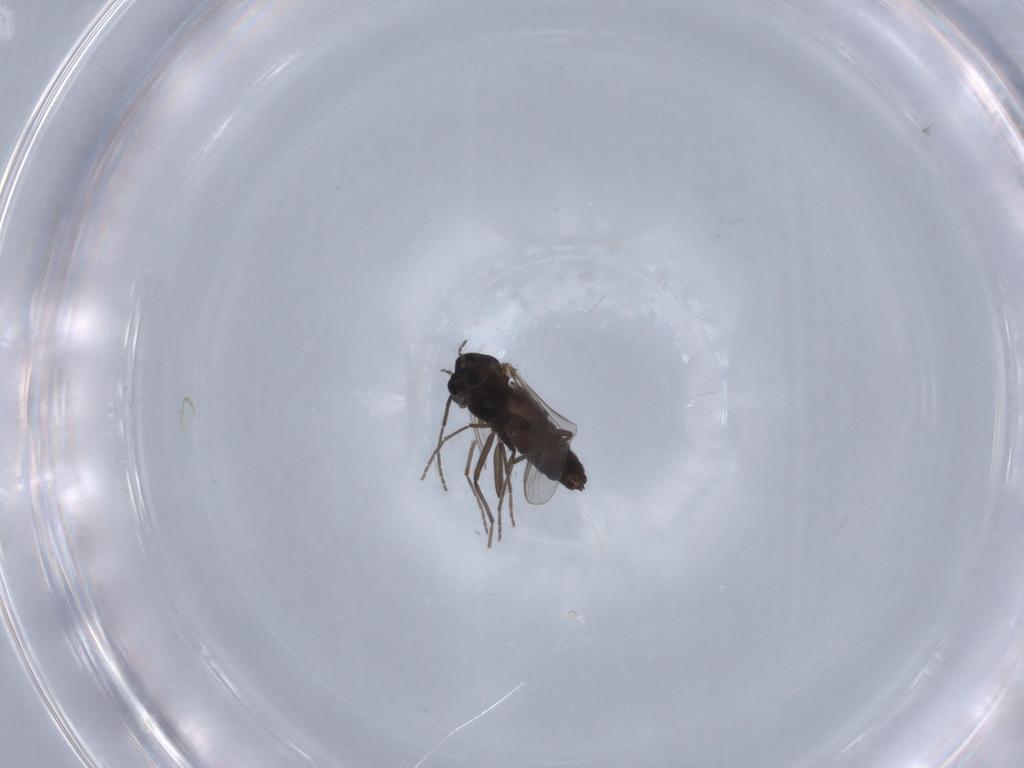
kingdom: Animalia
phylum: Arthropoda
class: Insecta
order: Diptera
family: Chironomidae
